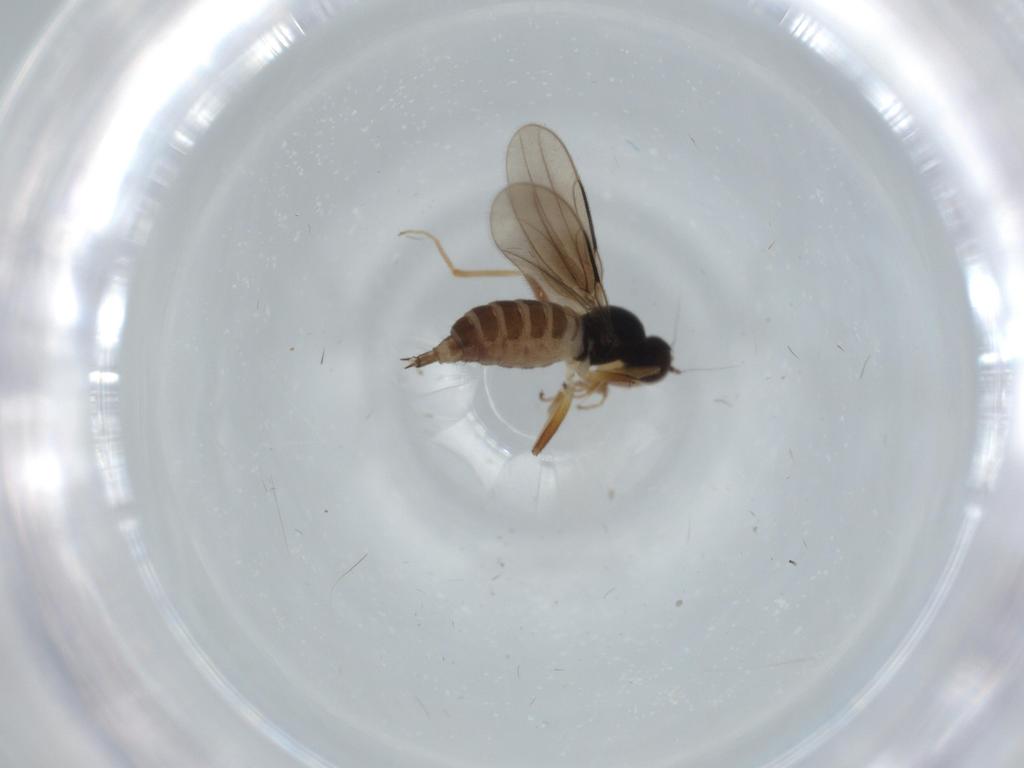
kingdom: Animalia
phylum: Arthropoda
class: Insecta
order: Diptera
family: Hybotidae
